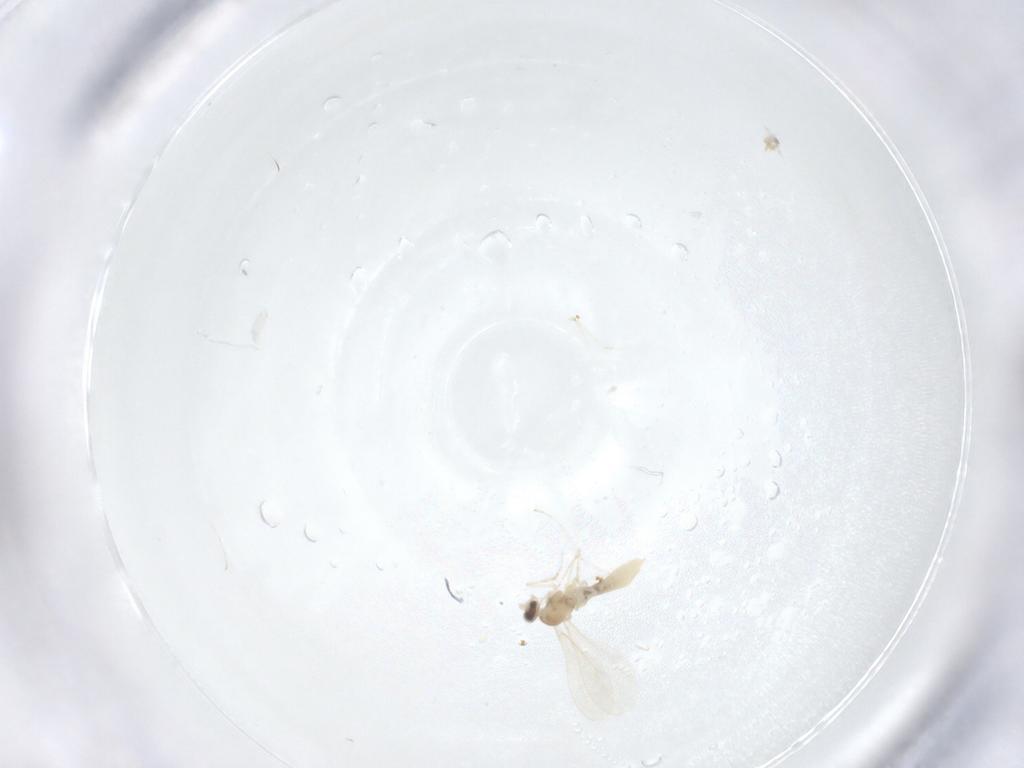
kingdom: Animalia
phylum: Arthropoda
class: Insecta
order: Diptera
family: Cecidomyiidae
